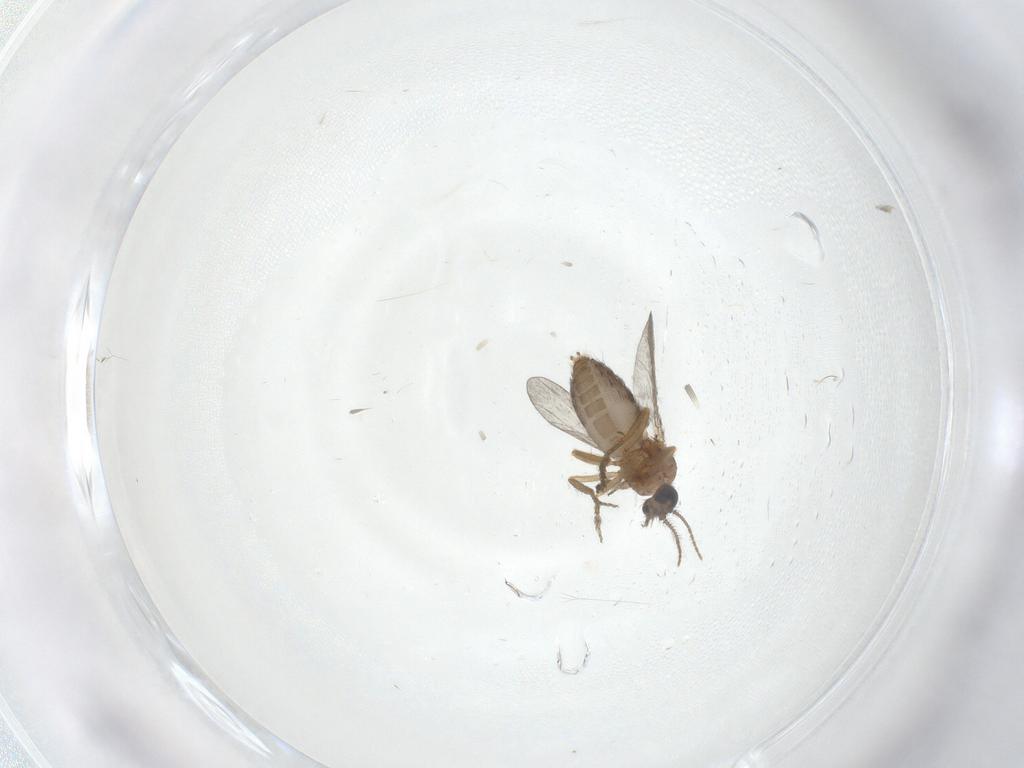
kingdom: Animalia
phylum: Arthropoda
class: Insecta
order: Diptera
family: Ceratopogonidae
